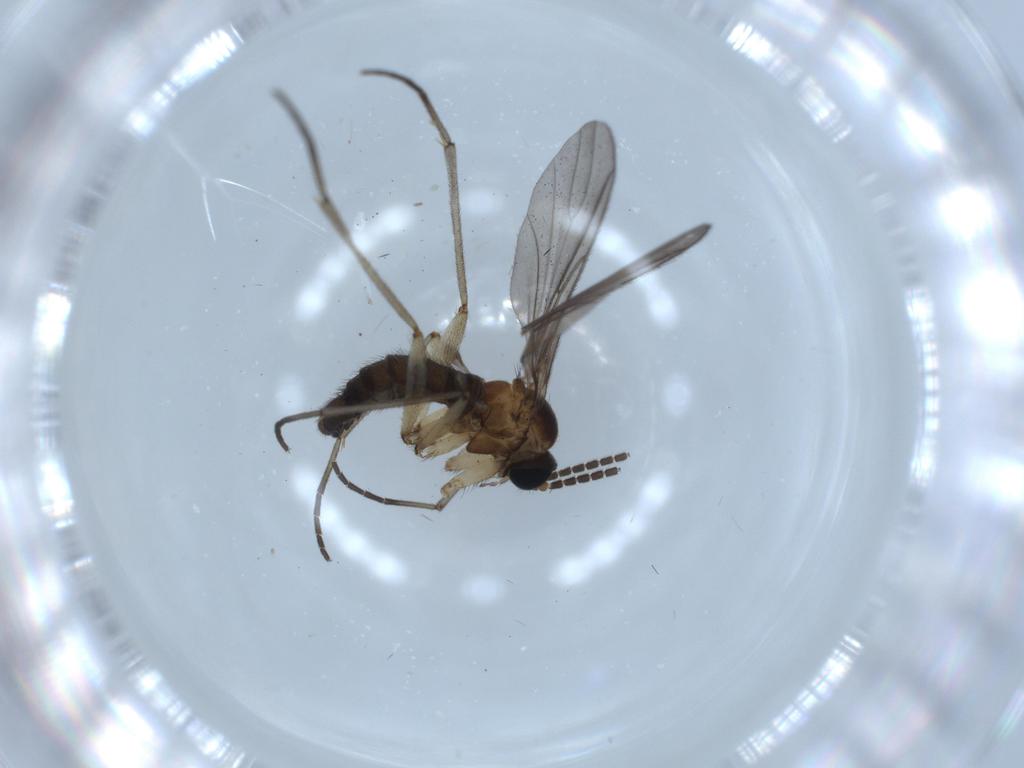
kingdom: Animalia
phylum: Arthropoda
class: Insecta
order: Diptera
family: Sciaridae
